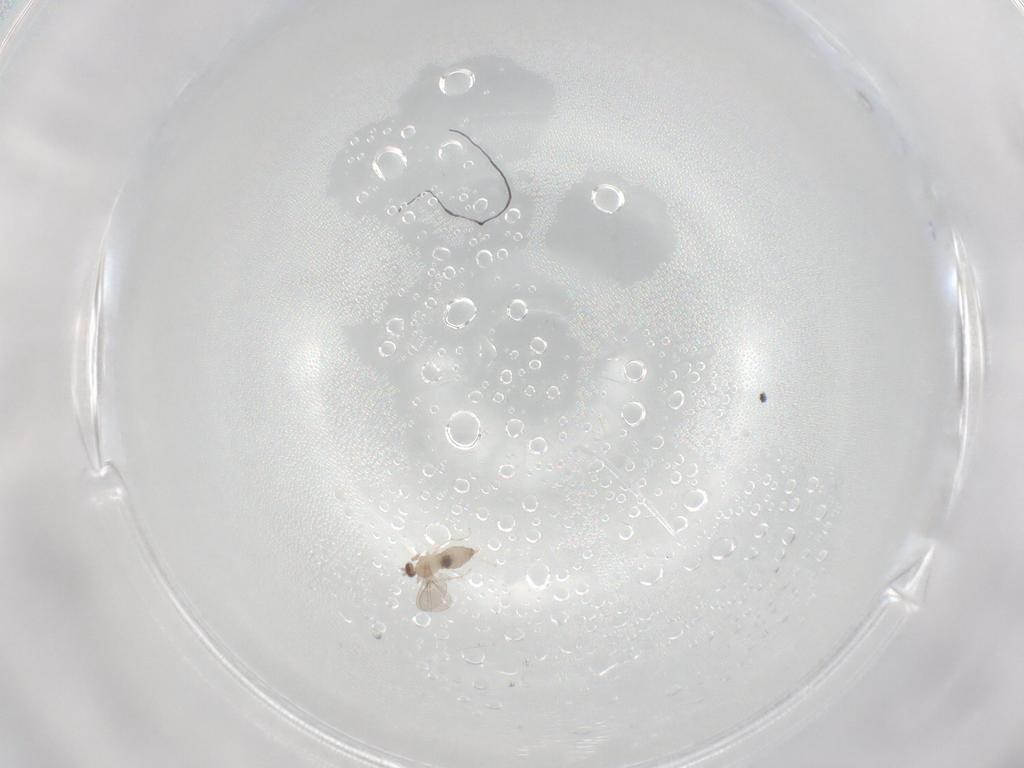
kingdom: Animalia
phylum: Arthropoda
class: Insecta
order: Diptera
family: Cecidomyiidae
